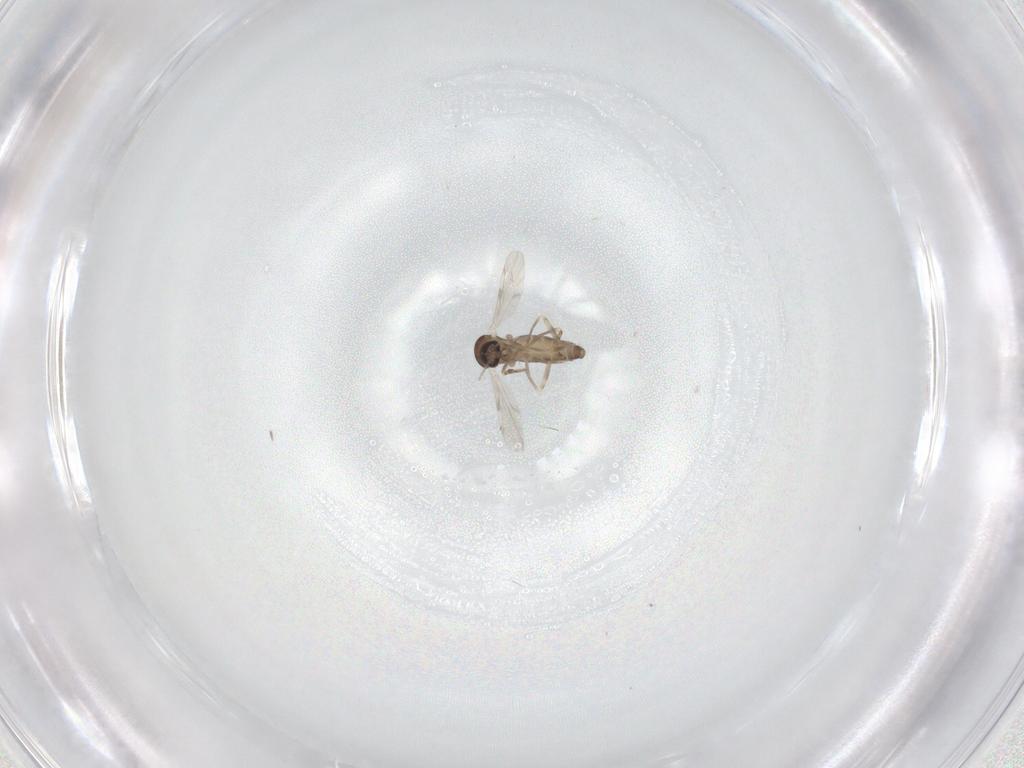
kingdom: Animalia
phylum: Arthropoda
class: Insecta
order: Diptera
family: Ceratopogonidae
